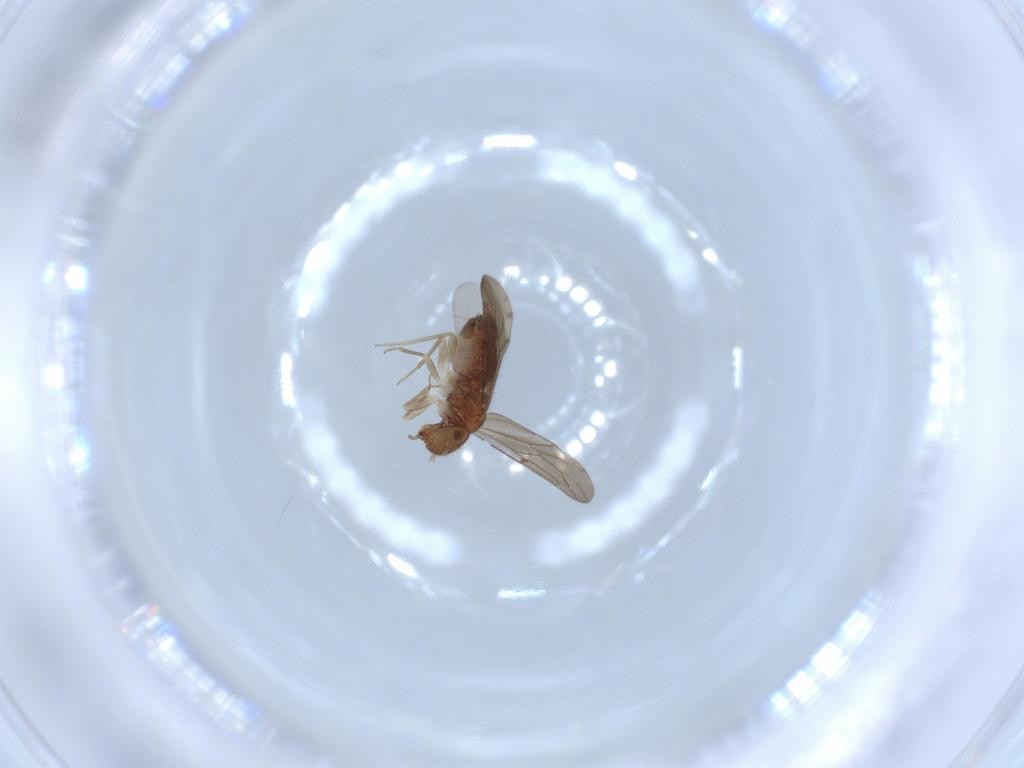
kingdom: Animalia
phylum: Arthropoda
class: Insecta
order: Psocodea
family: Ectopsocidae
